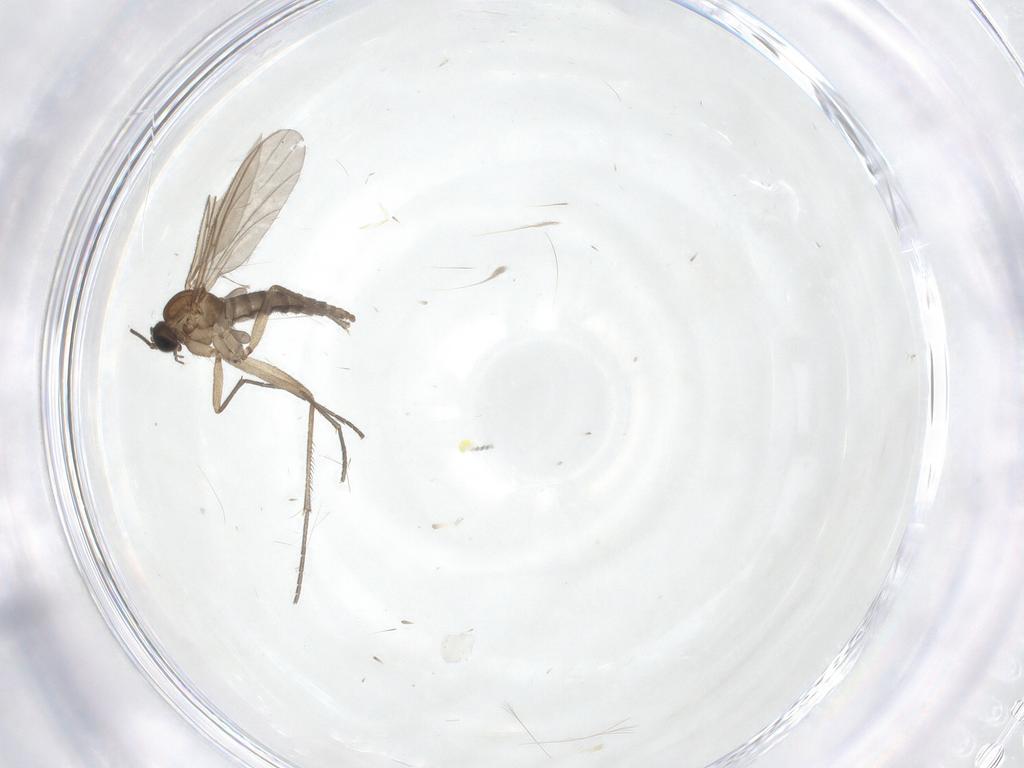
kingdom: Animalia
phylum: Arthropoda
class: Insecta
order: Diptera
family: Sciaridae
